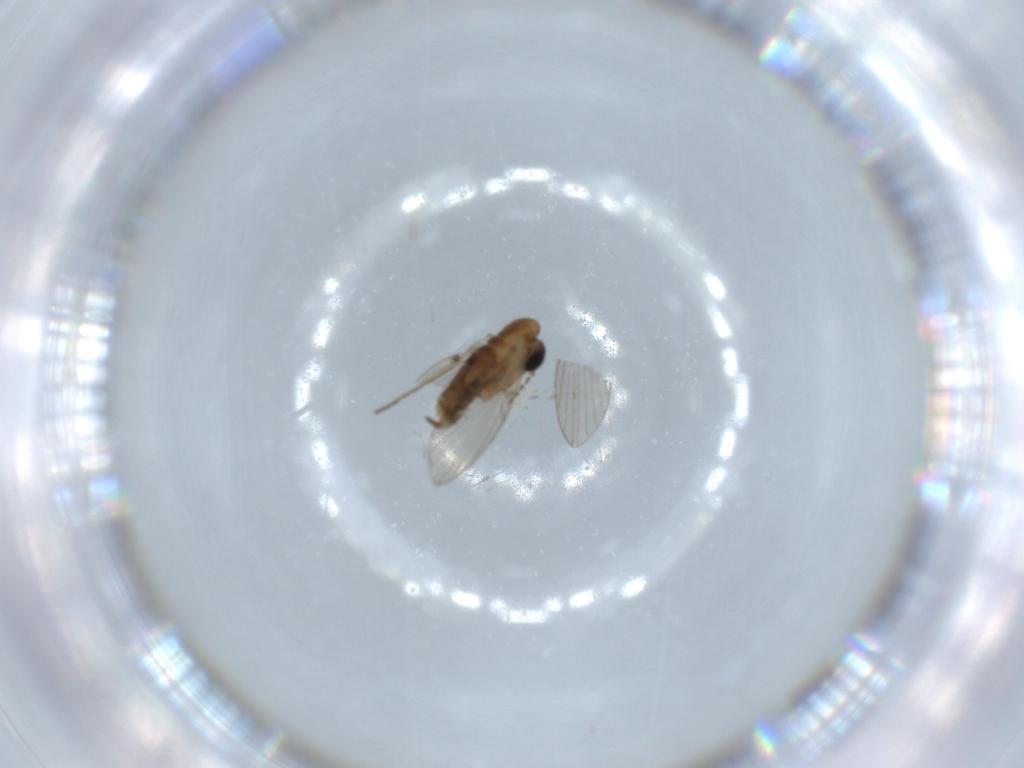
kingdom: Animalia
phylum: Arthropoda
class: Insecta
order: Diptera
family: Psychodidae
